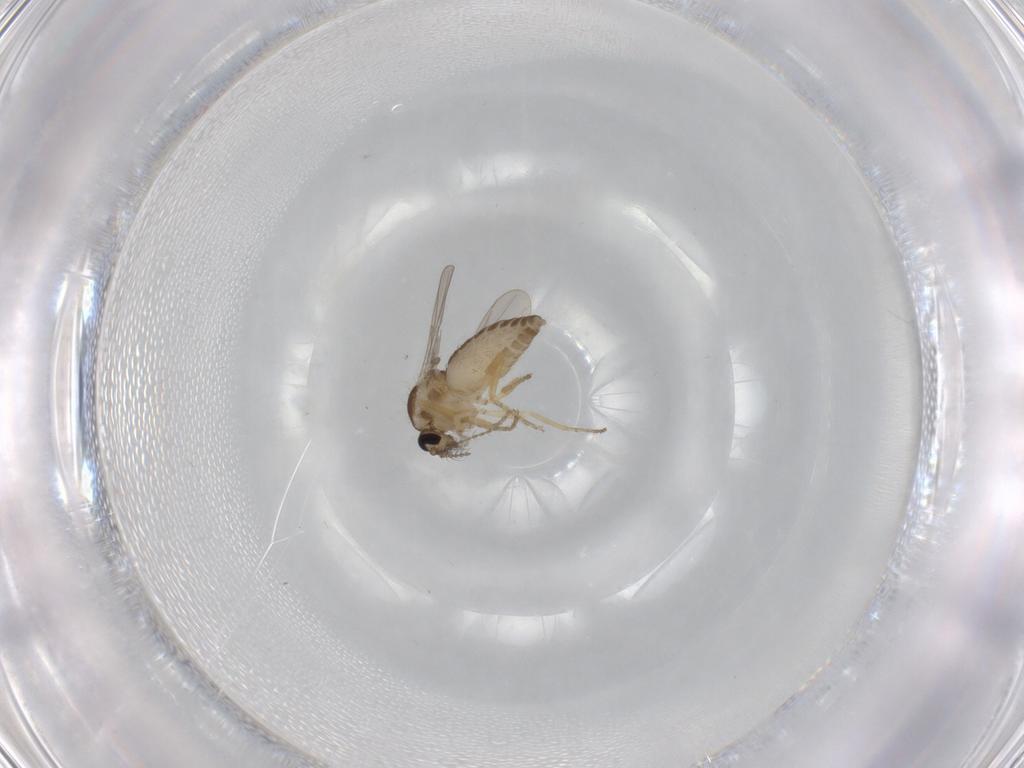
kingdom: Animalia
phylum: Arthropoda
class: Insecta
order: Diptera
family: Ceratopogonidae
